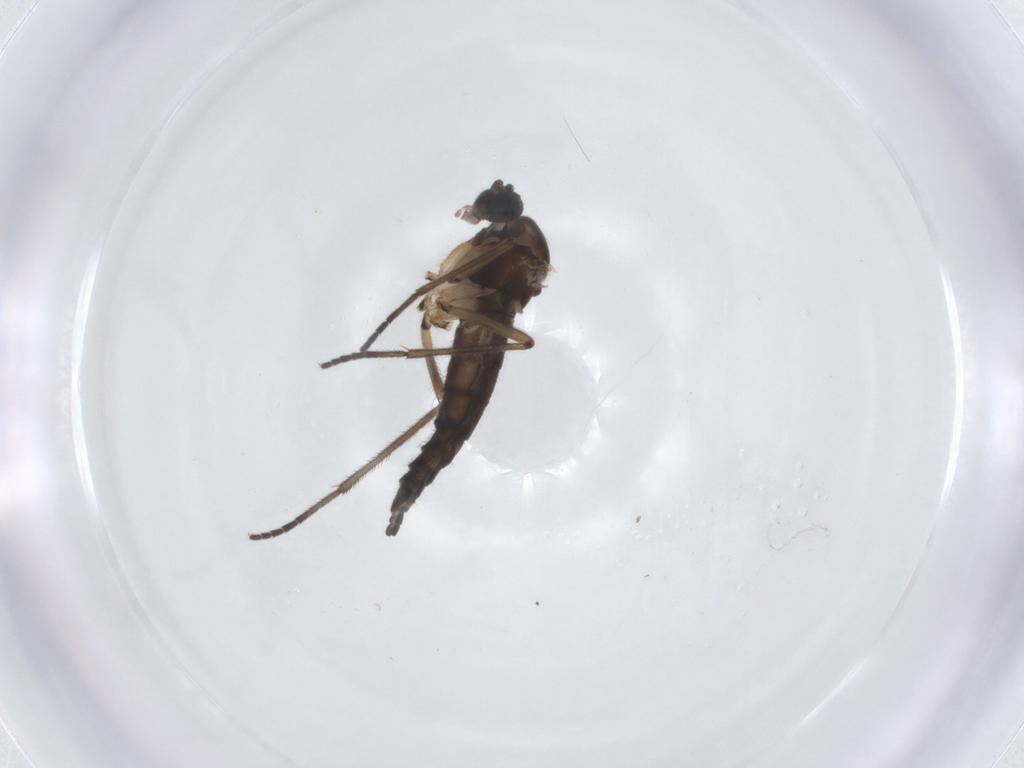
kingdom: Animalia
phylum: Arthropoda
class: Insecta
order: Diptera
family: Sciaridae
